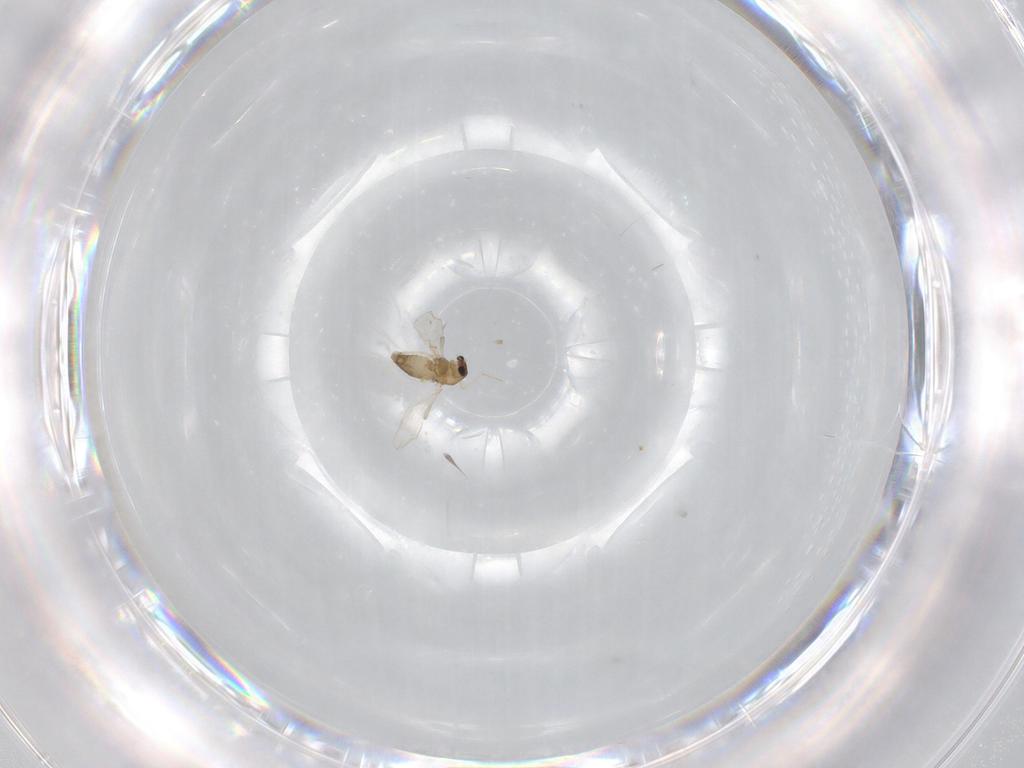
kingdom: Animalia
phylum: Arthropoda
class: Insecta
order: Diptera
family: Chironomidae
